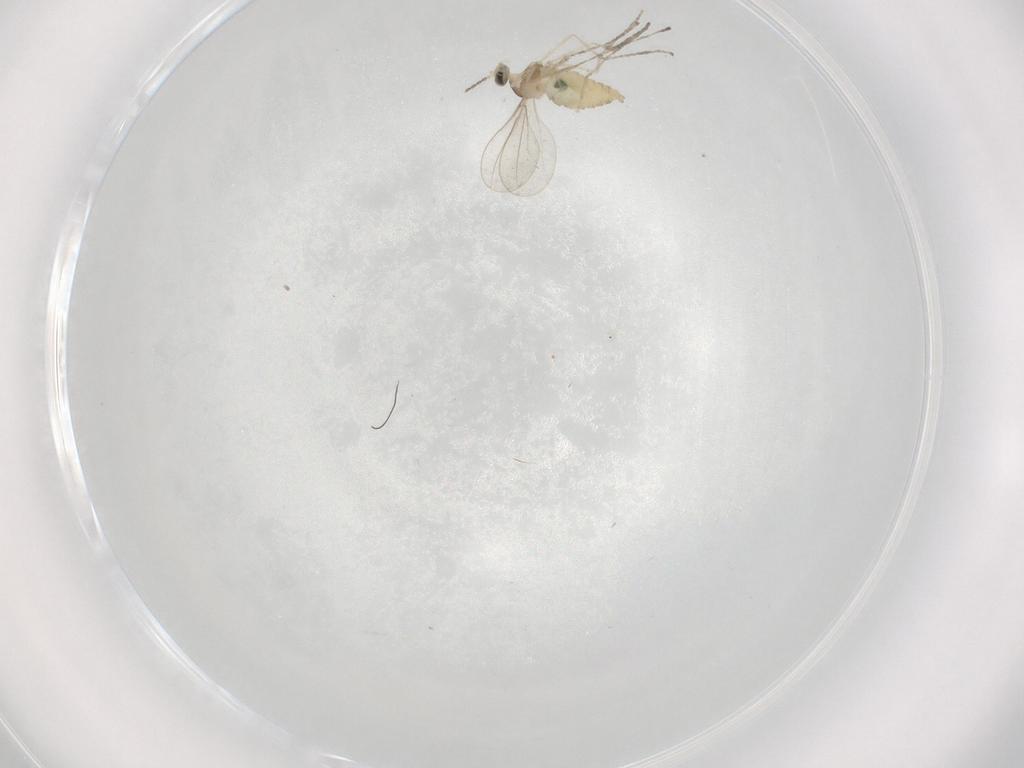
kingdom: Animalia
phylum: Arthropoda
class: Insecta
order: Diptera
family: Cecidomyiidae
